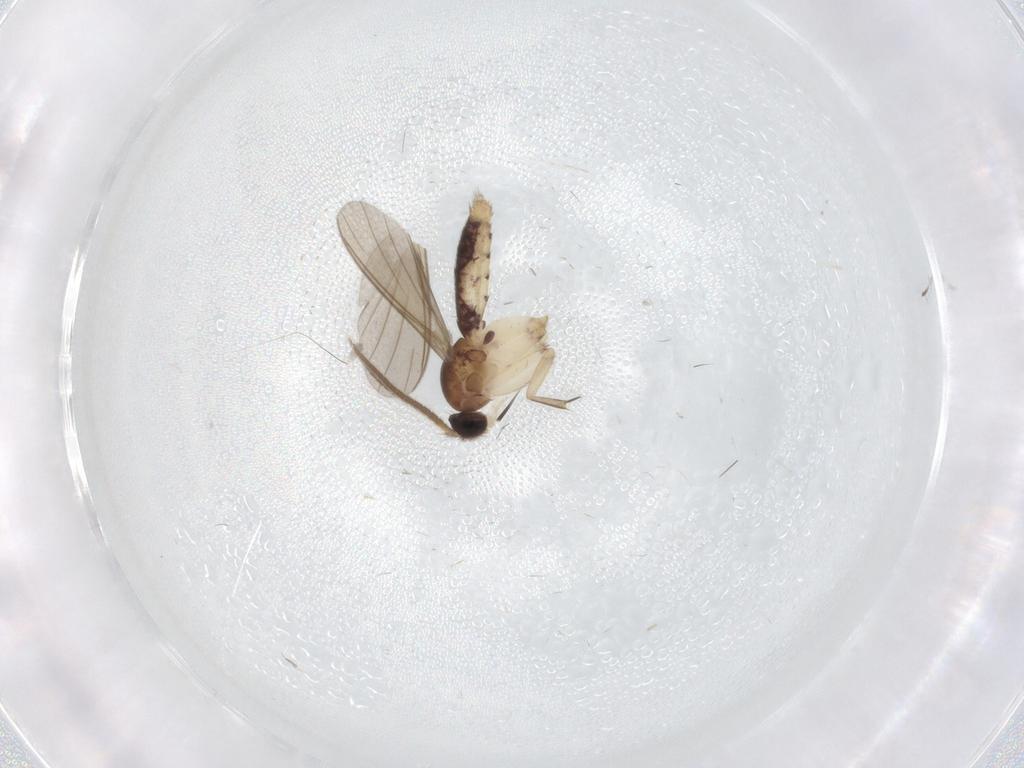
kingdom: Animalia
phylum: Arthropoda
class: Insecta
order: Diptera
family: Mycetophilidae
